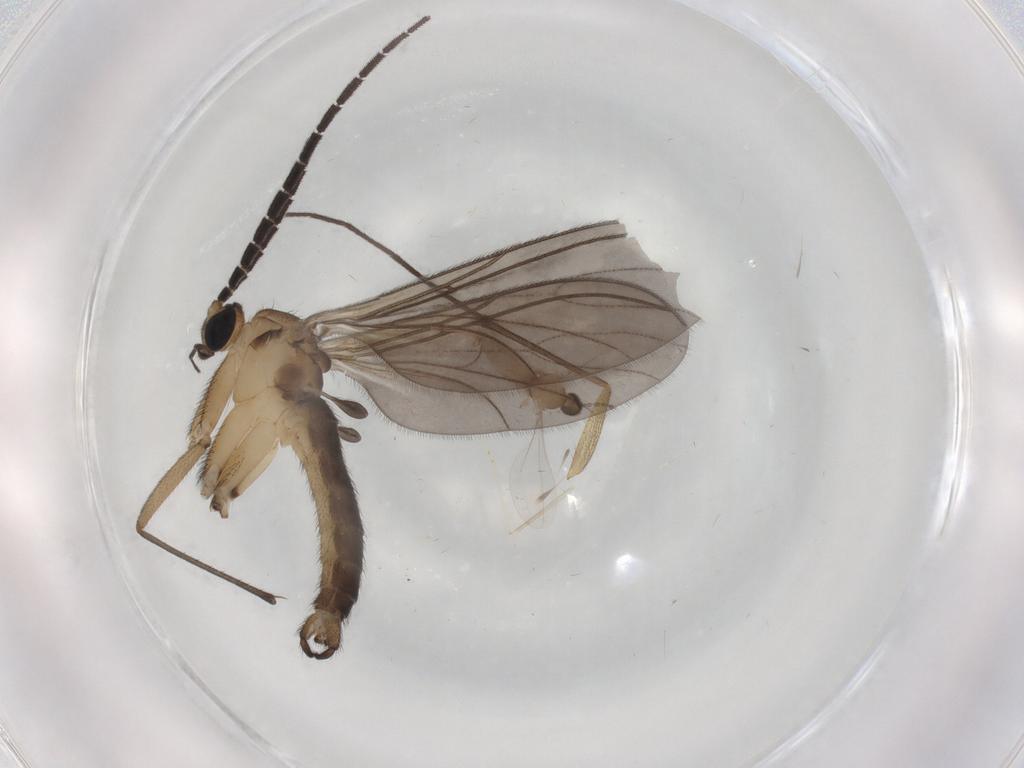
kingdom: Animalia
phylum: Arthropoda
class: Insecta
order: Diptera
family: Mycetophilidae
